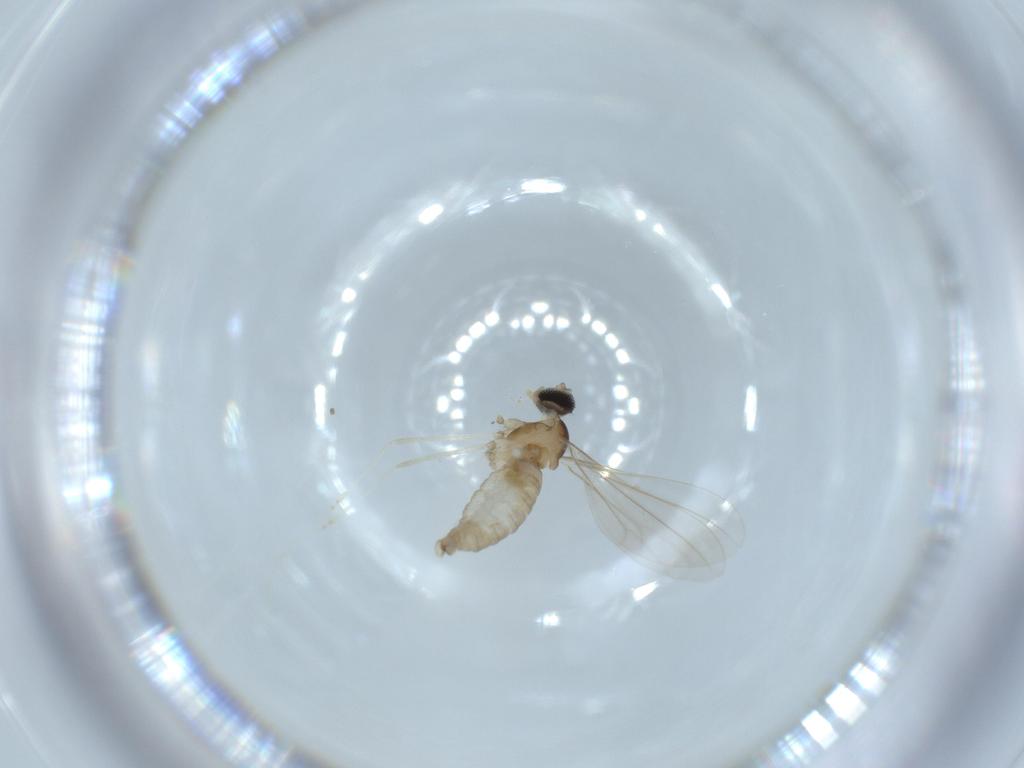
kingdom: Animalia
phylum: Arthropoda
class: Insecta
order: Diptera
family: Cecidomyiidae
